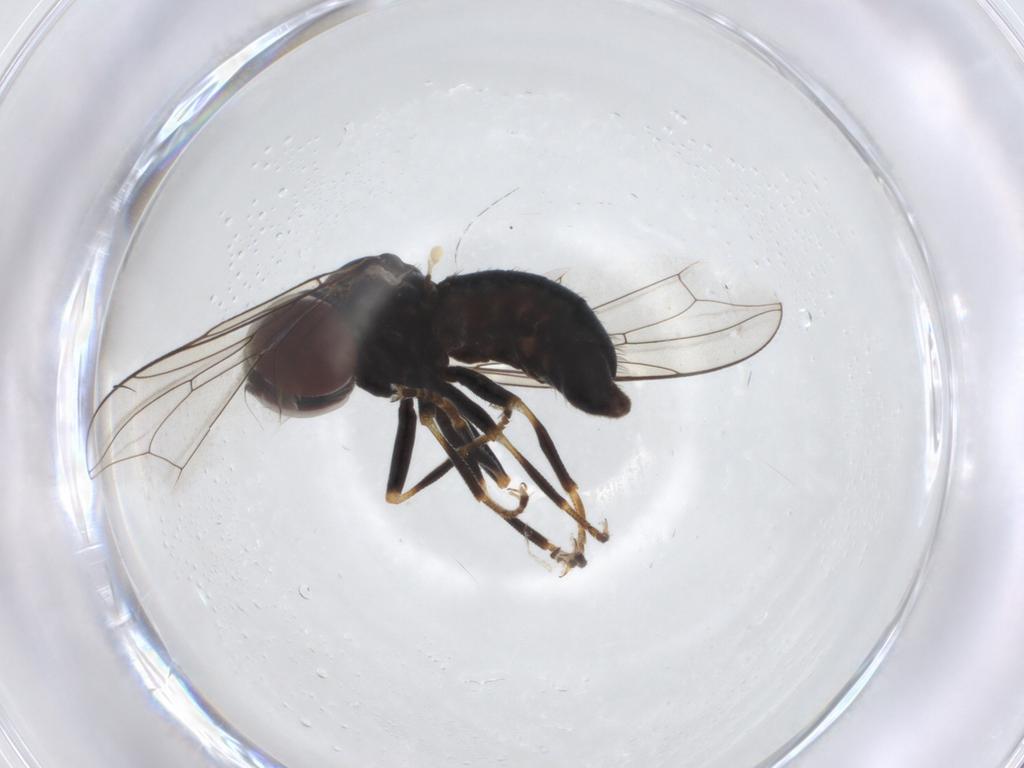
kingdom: Animalia
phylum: Arthropoda
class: Insecta
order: Diptera
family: Pipunculidae
